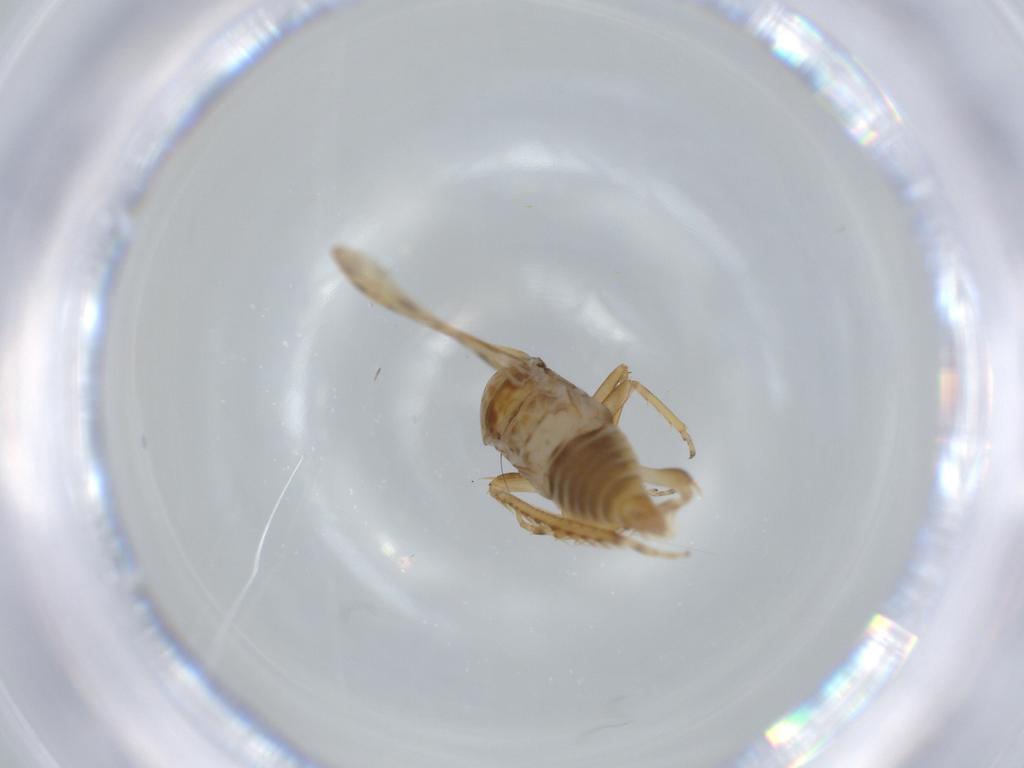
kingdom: Animalia
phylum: Arthropoda
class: Insecta
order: Hemiptera
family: Cicadellidae
